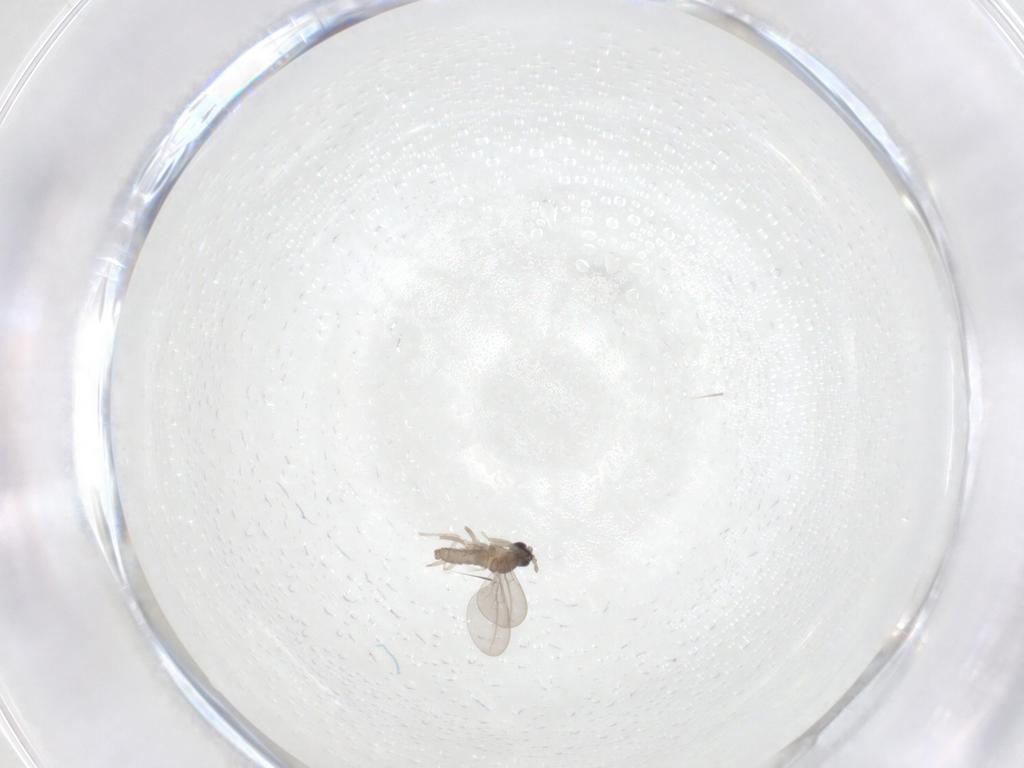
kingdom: Animalia
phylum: Arthropoda
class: Insecta
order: Diptera
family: Cecidomyiidae
